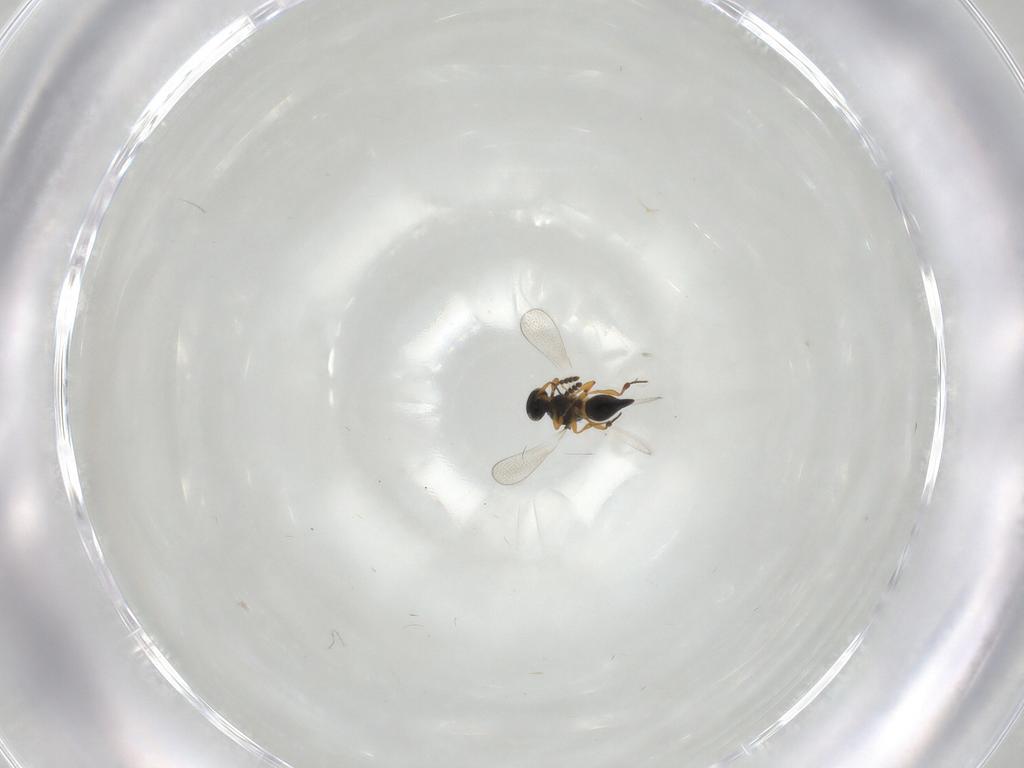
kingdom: Animalia
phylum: Arthropoda
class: Insecta
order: Hymenoptera
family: Platygastridae
